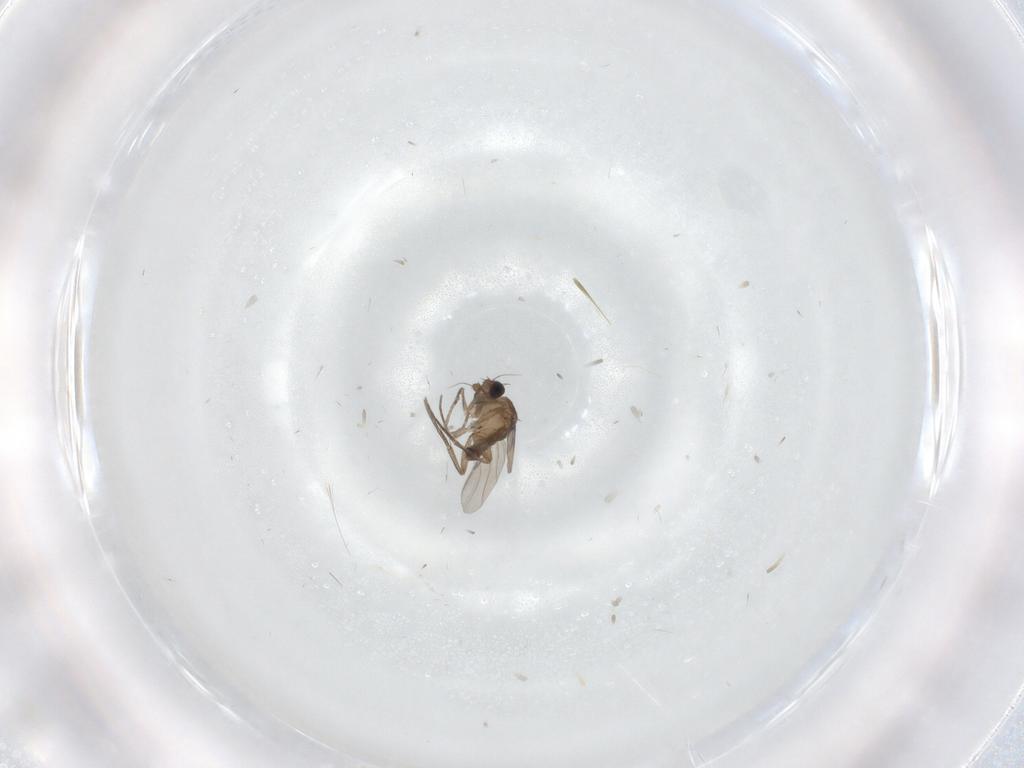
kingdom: Animalia
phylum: Arthropoda
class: Insecta
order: Diptera
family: Phoridae
